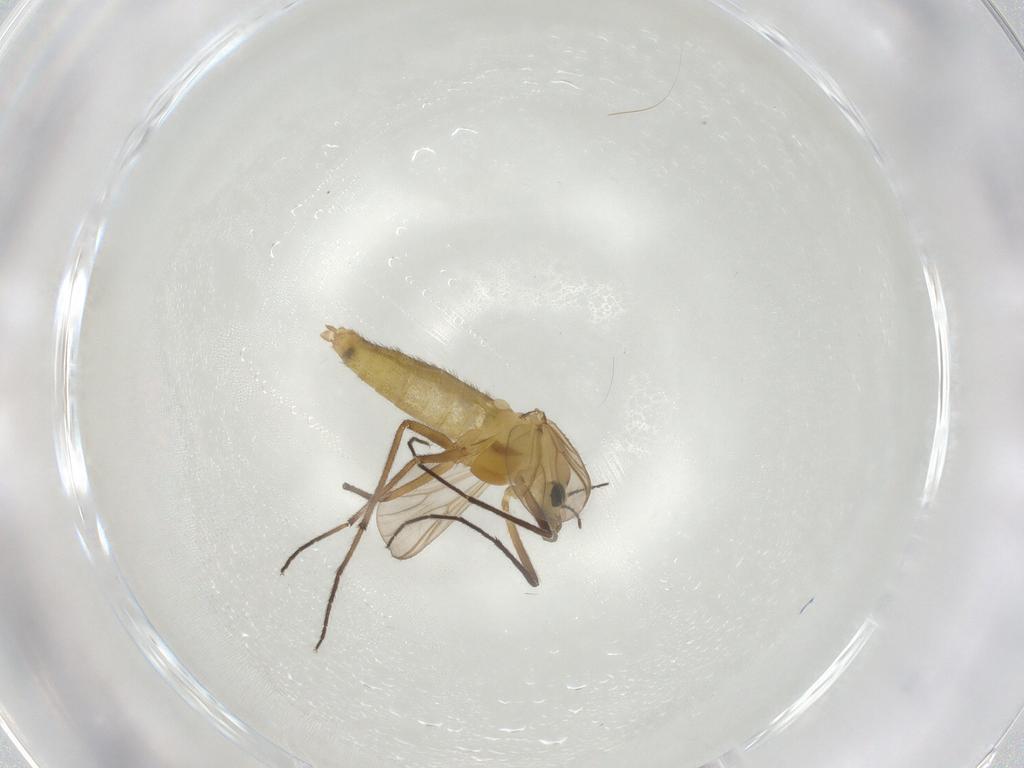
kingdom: Animalia
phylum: Arthropoda
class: Insecta
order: Diptera
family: Chironomidae
